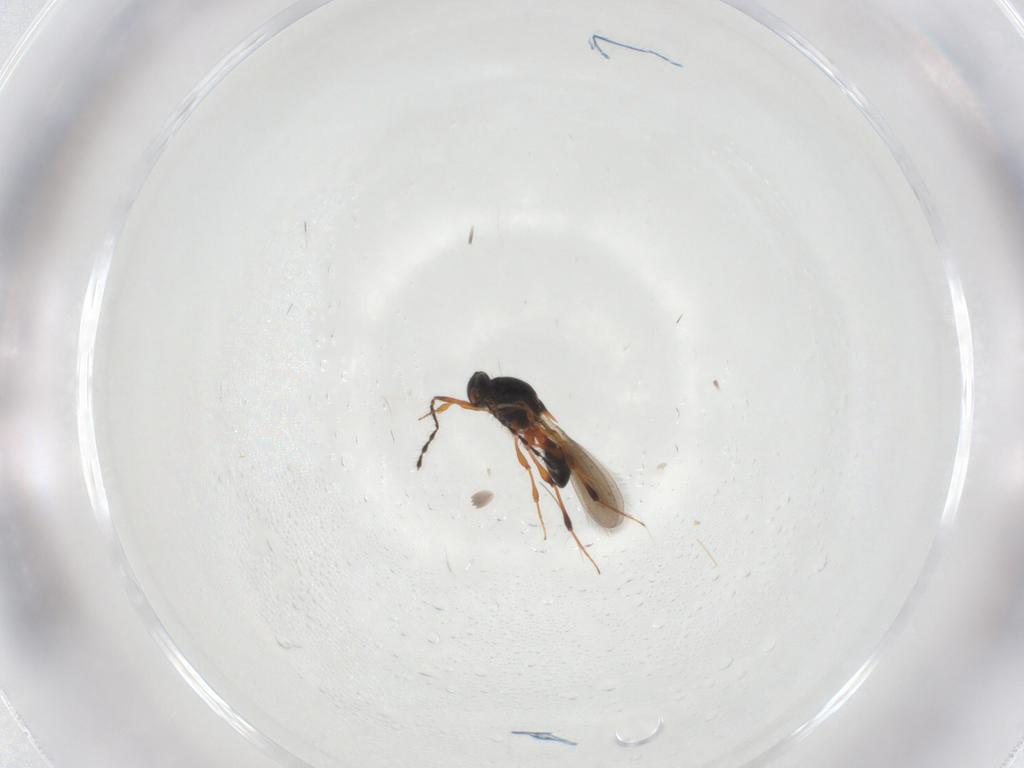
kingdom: Animalia
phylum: Arthropoda
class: Insecta
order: Hymenoptera
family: Platygastridae
